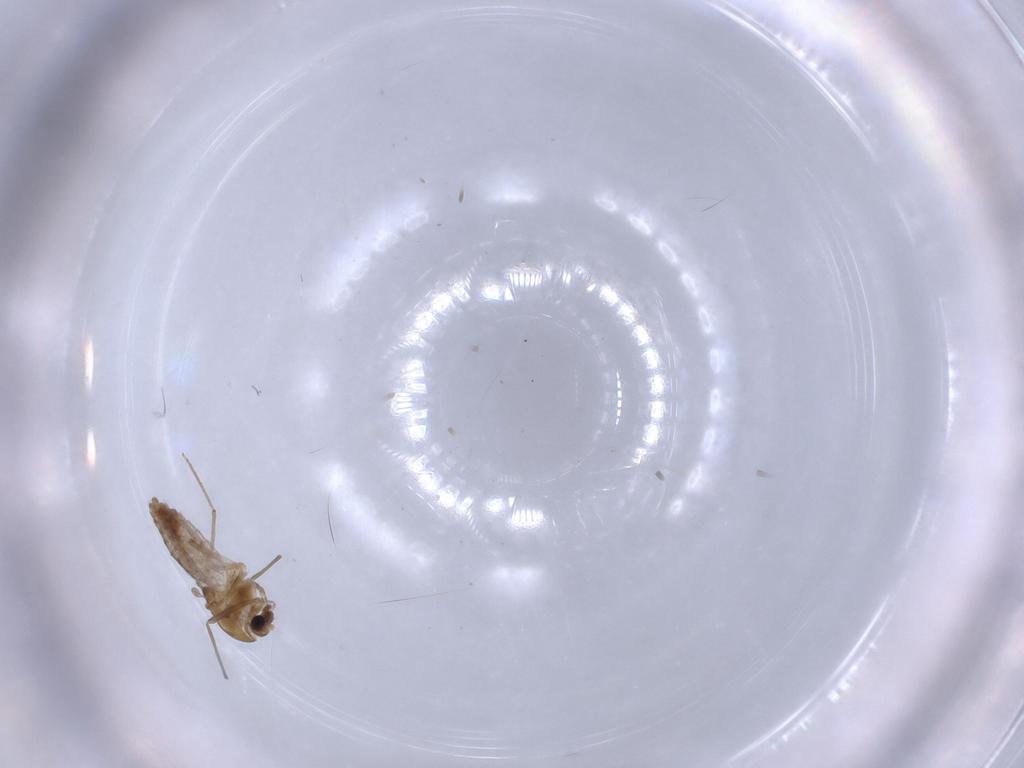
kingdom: Animalia
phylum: Arthropoda
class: Insecta
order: Diptera
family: Chironomidae
